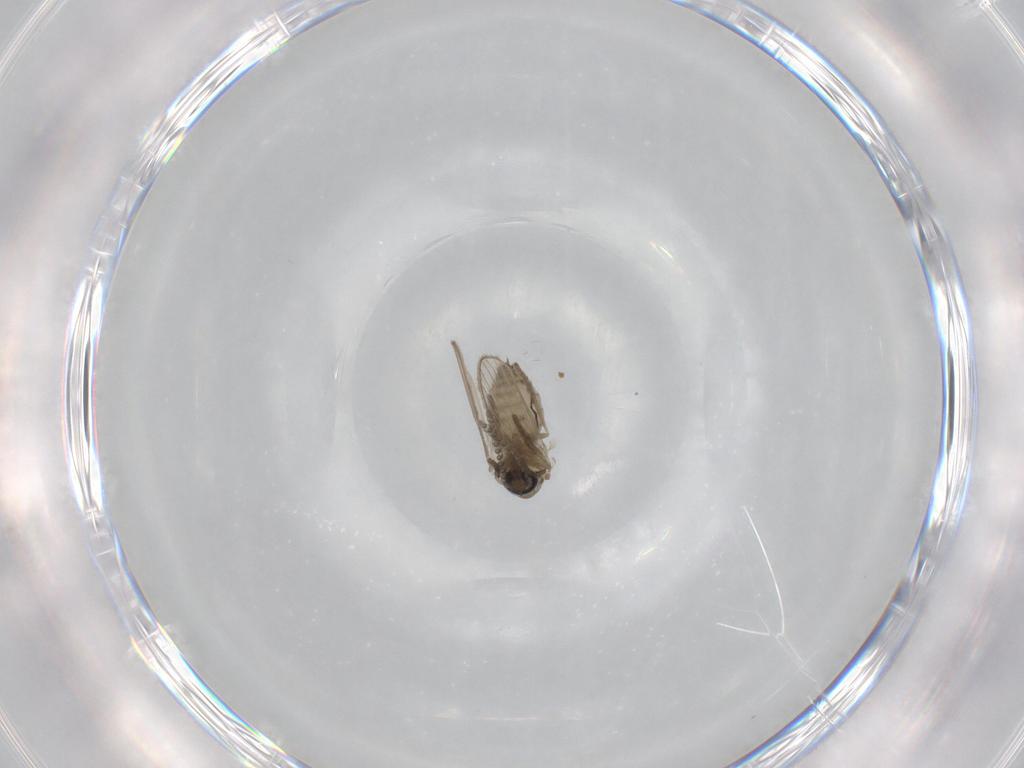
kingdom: Animalia
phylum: Arthropoda
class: Insecta
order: Diptera
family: Psychodidae
